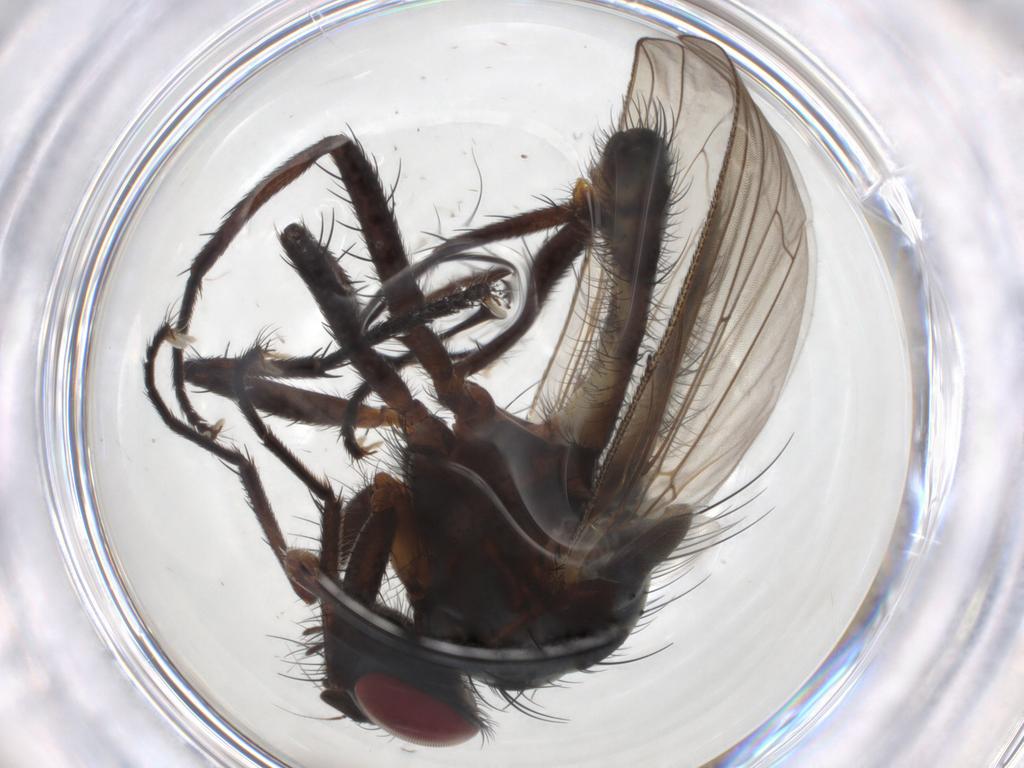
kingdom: Animalia
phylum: Arthropoda
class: Insecta
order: Diptera
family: Anthomyiidae
